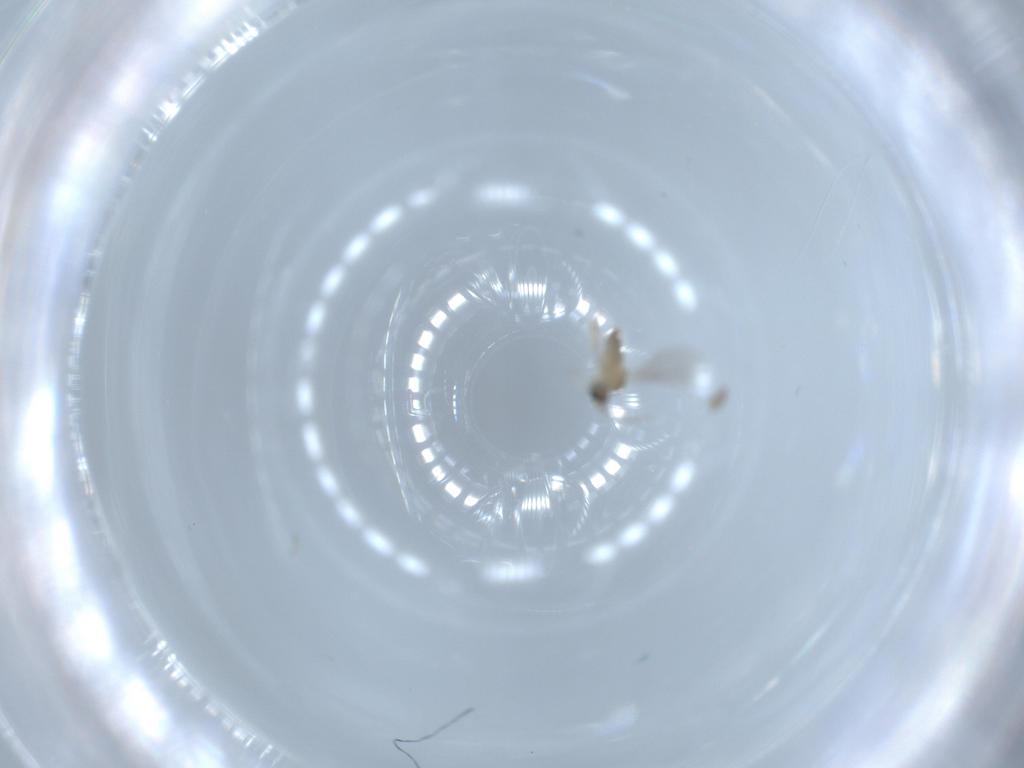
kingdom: Animalia
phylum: Arthropoda
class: Insecta
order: Diptera
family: Cecidomyiidae
